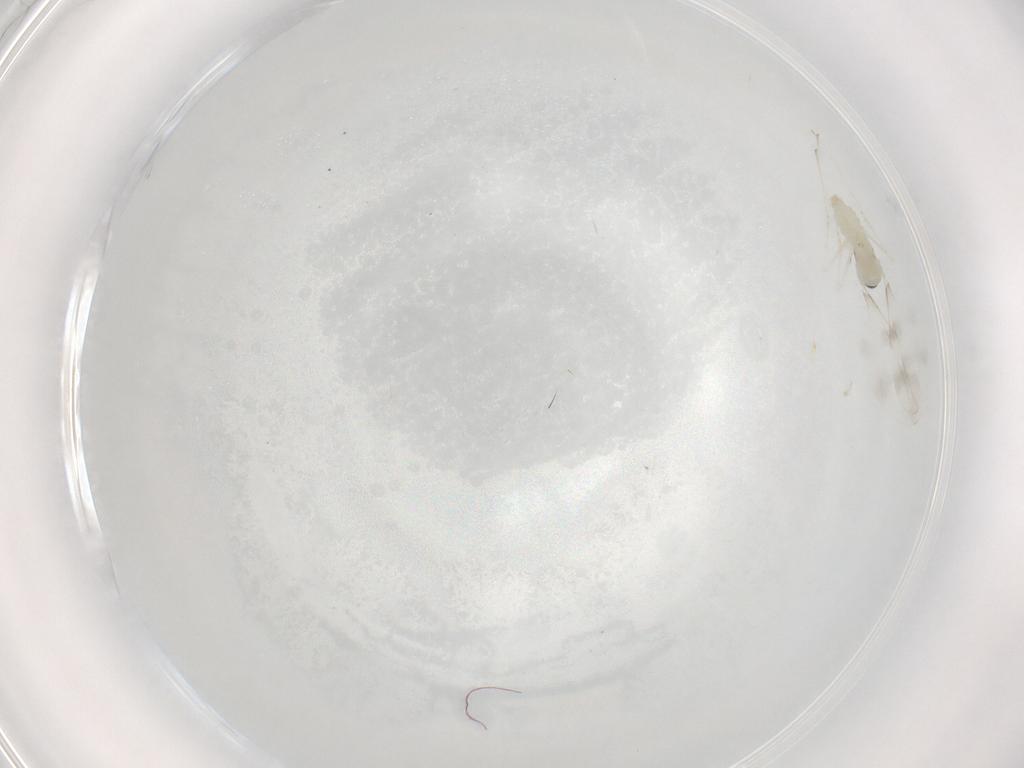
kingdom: Animalia
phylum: Arthropoda
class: Insecta
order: Diptera
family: Cecidomyiidae
